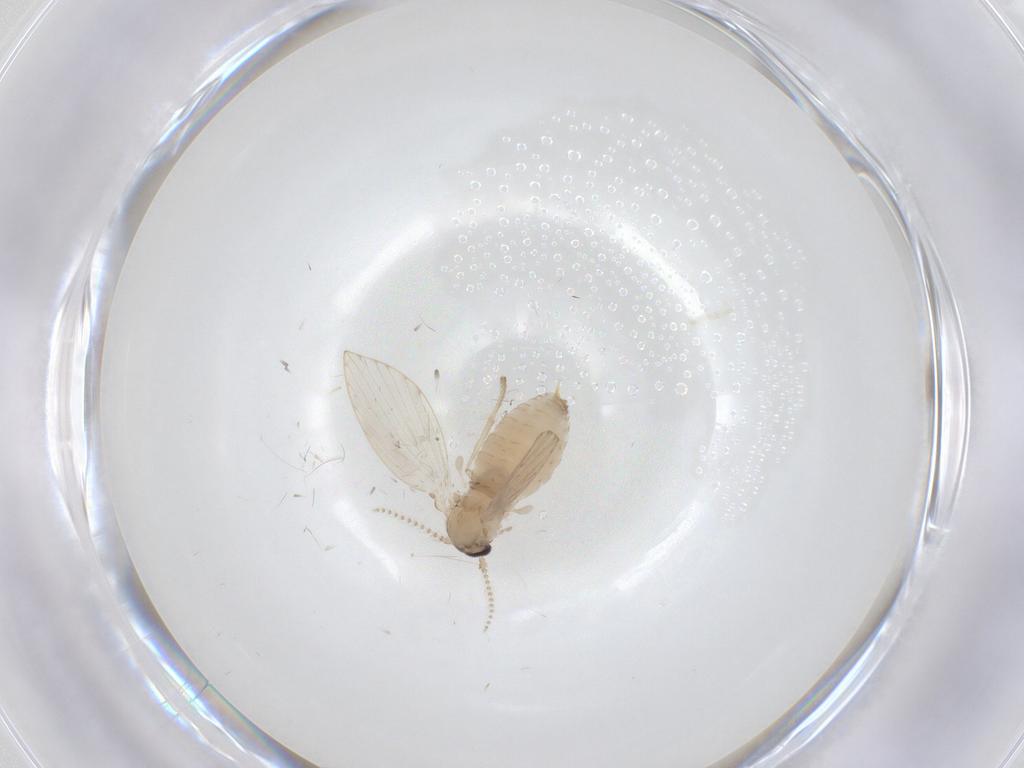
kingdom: Animalia
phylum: Arthropoda
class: Insecta
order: Diptera
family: Psychodidae
